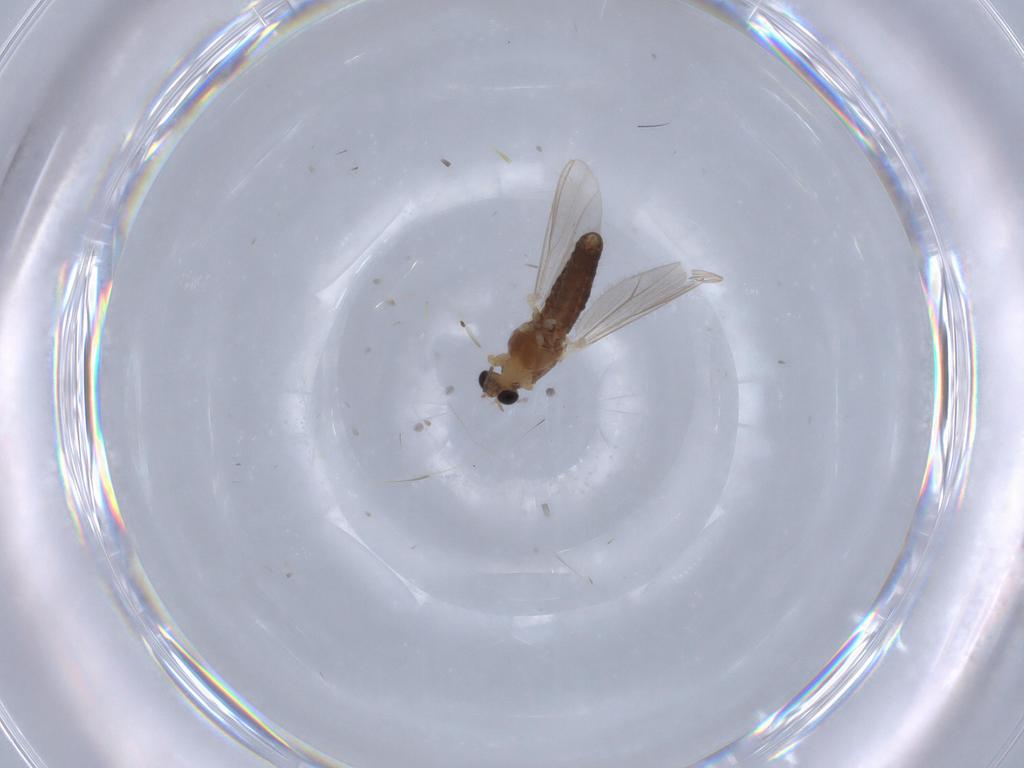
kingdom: Animalia
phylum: Arthropoda
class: Insecta
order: Diptera
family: Chironomidae
